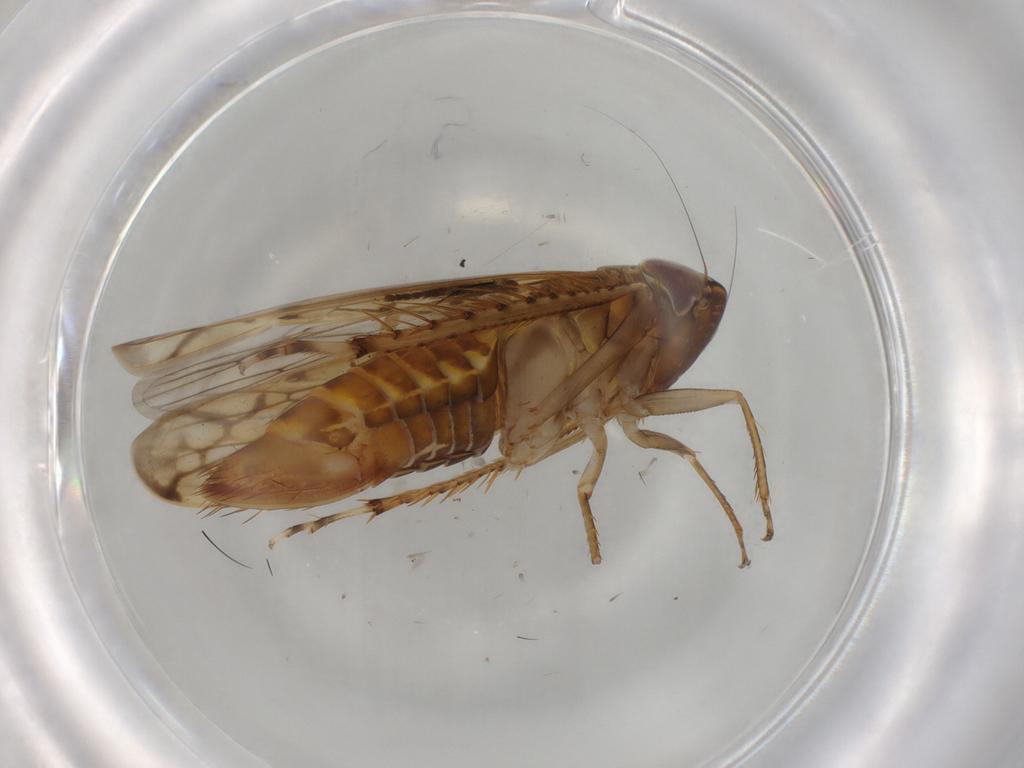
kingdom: Animalia
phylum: Arthropoda
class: Insecta
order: Hemiptera
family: Cicadellidae
